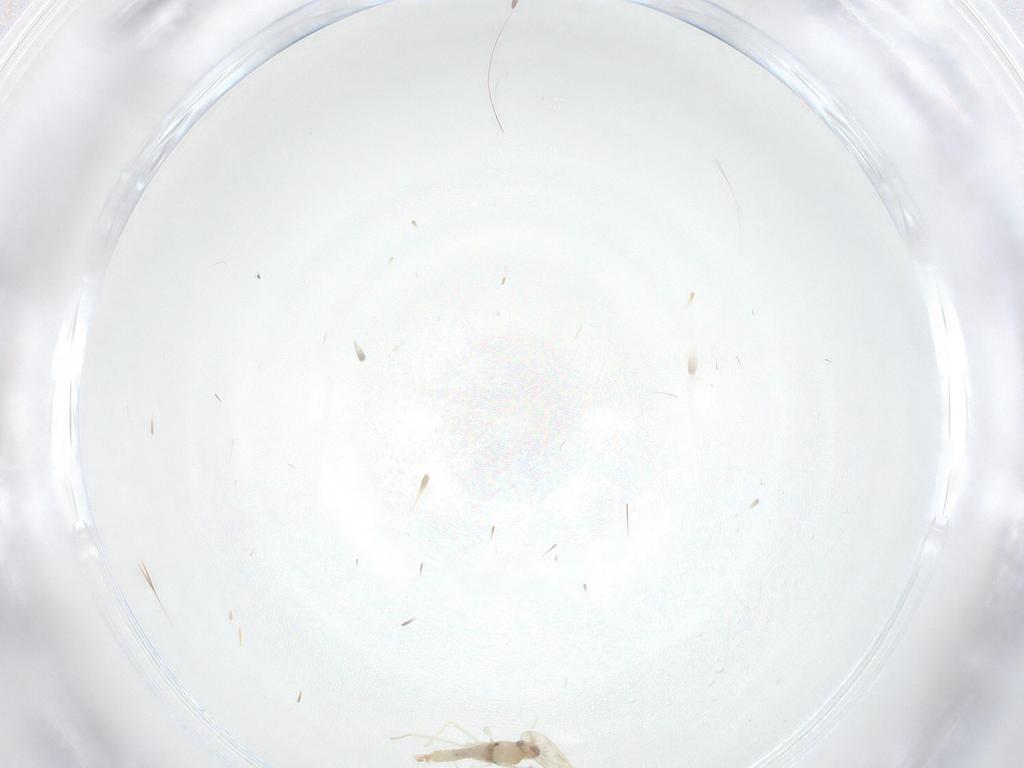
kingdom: Animalia
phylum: Arthropoda
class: Insecta
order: Diptera
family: Cecidomyiidae
